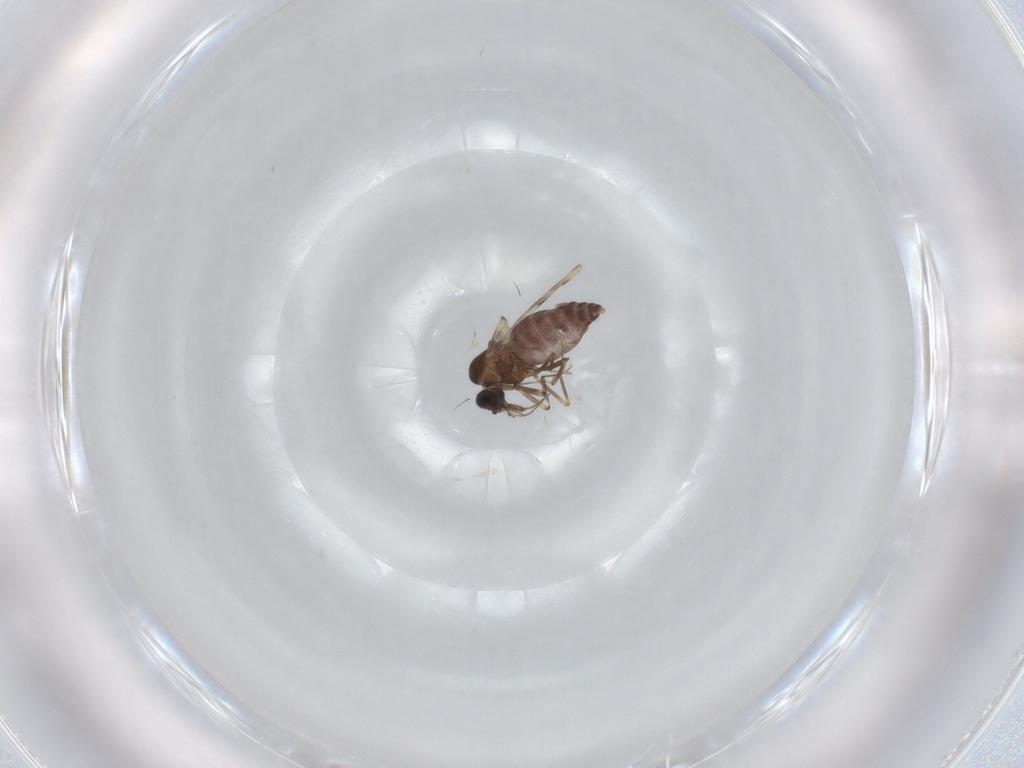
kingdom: Animalia
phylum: Arthropoda
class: Insecta
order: Diptera
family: Ceratopogonidae
